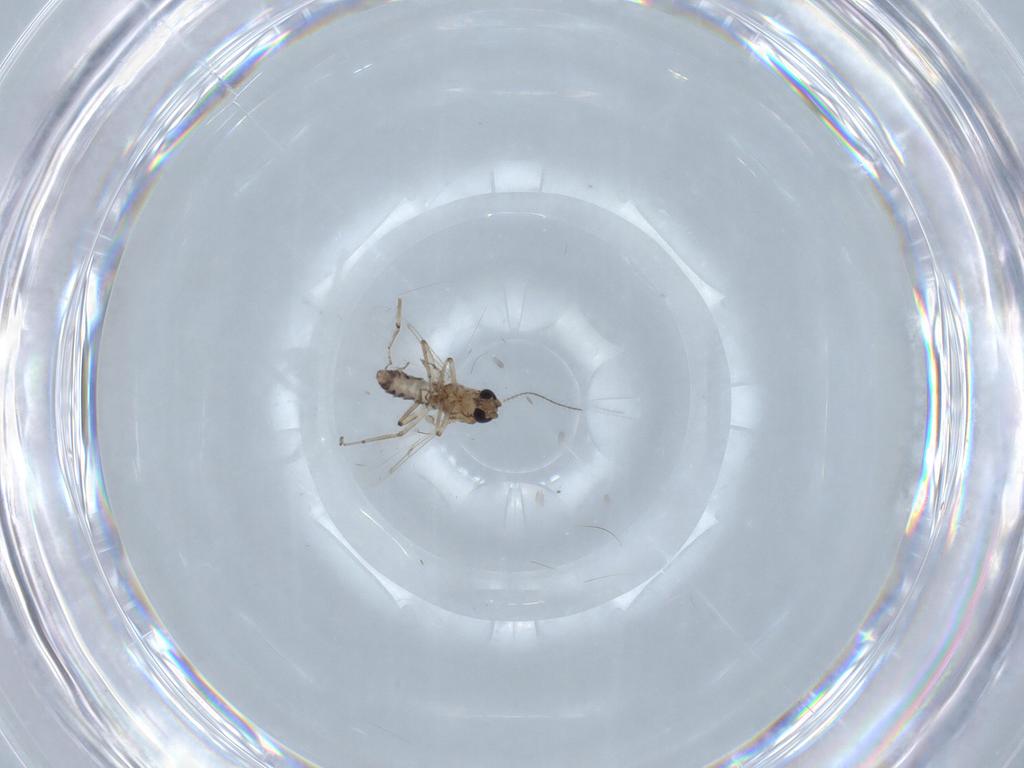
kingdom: Animalia
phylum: Arthropoda
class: Insecta
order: Diptera
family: Ceratopogonidae
